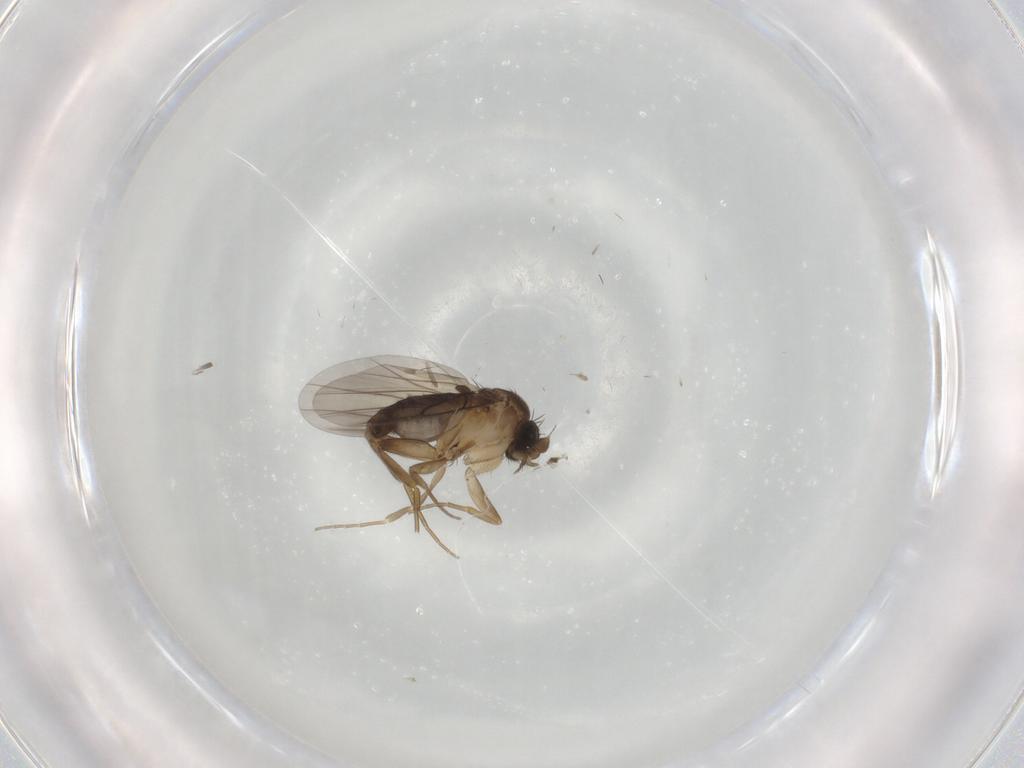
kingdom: Animalia
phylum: Arthropoda
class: Insecta
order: Diptera
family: Phoridae
